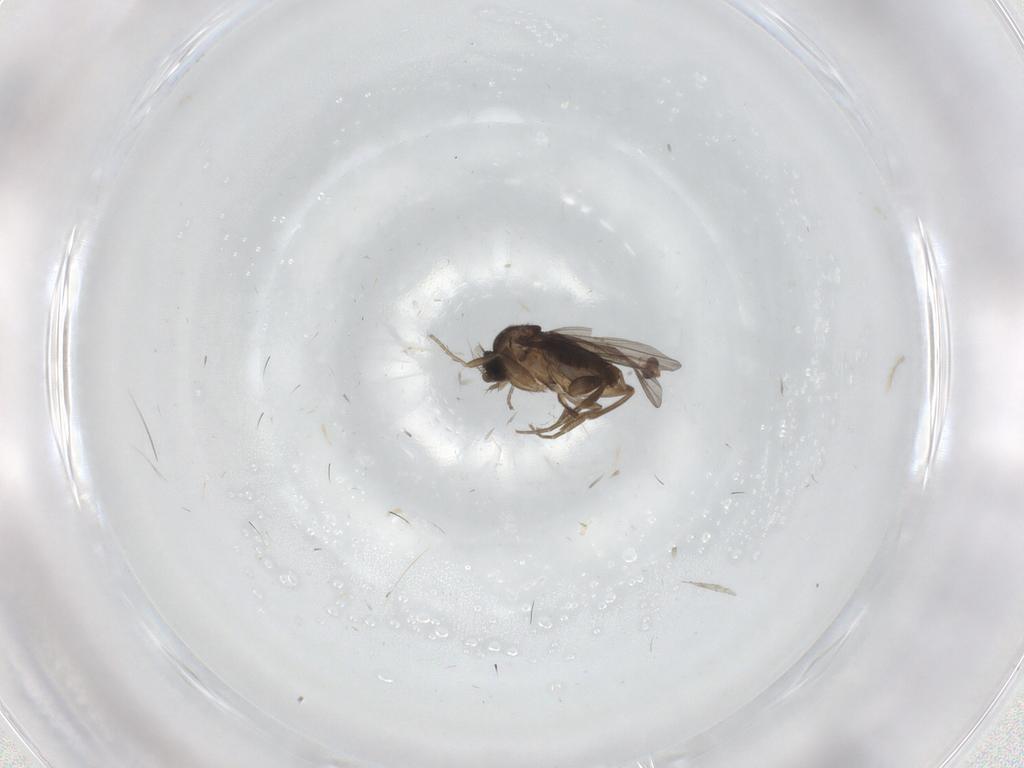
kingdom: Animalia
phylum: Arthropoda
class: Insecta
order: Diptera
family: Phoridae
